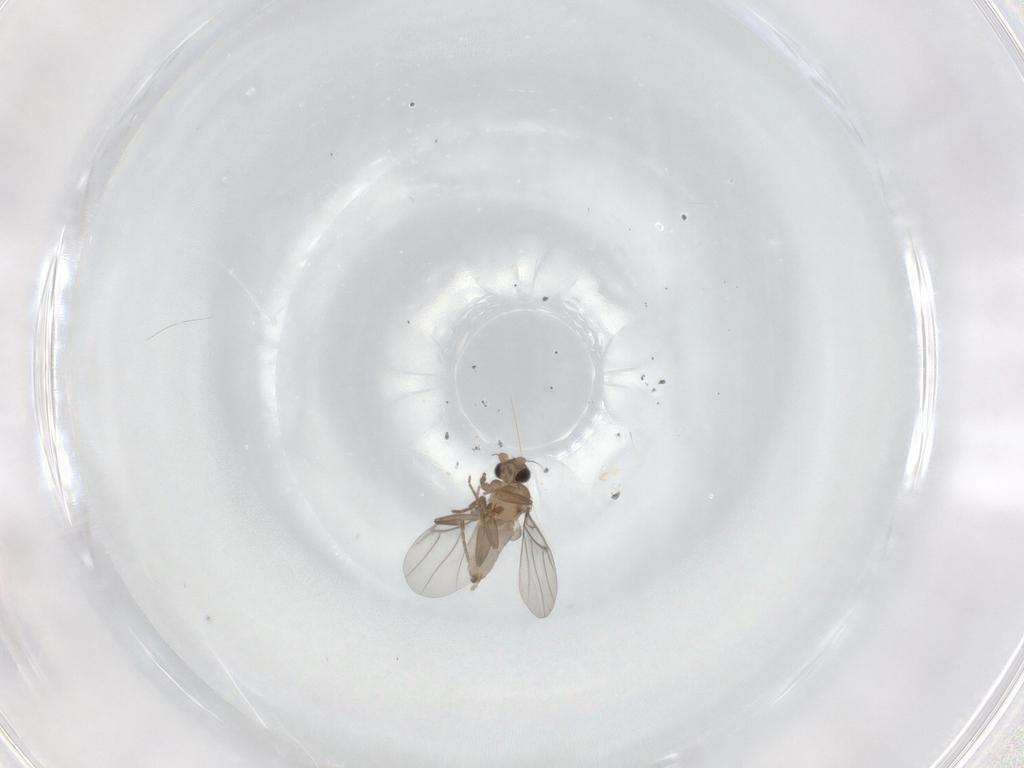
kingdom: Animalia
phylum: Arthropoda
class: Insecta
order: Diptera
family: Chironomidae
